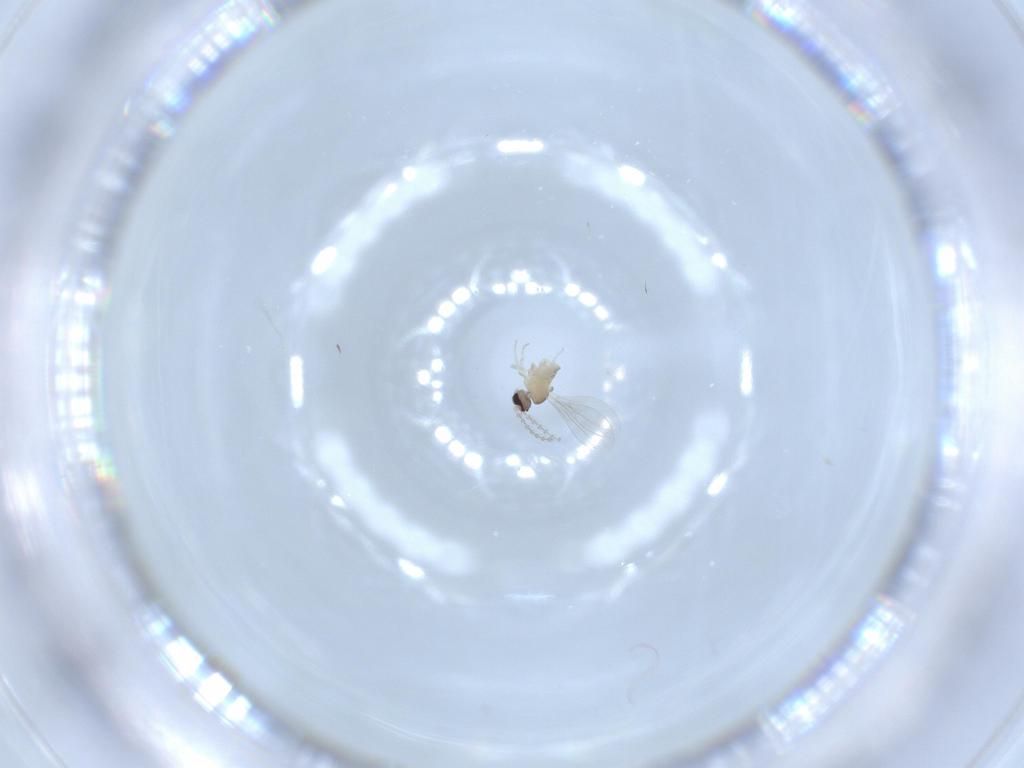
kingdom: Animalia
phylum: Arthropoda
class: Insecta
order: Diptera
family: Cecidomyiidae
